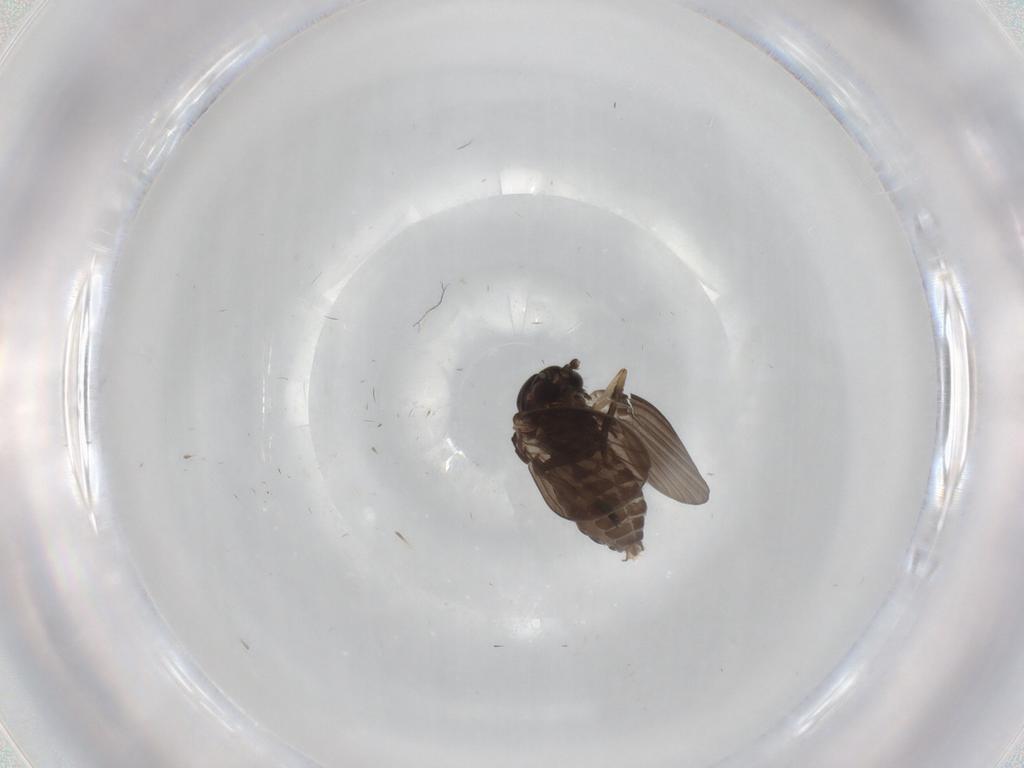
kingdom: Animalia
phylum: Arthropoda
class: Insecta
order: Diptera
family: Psychodidae
